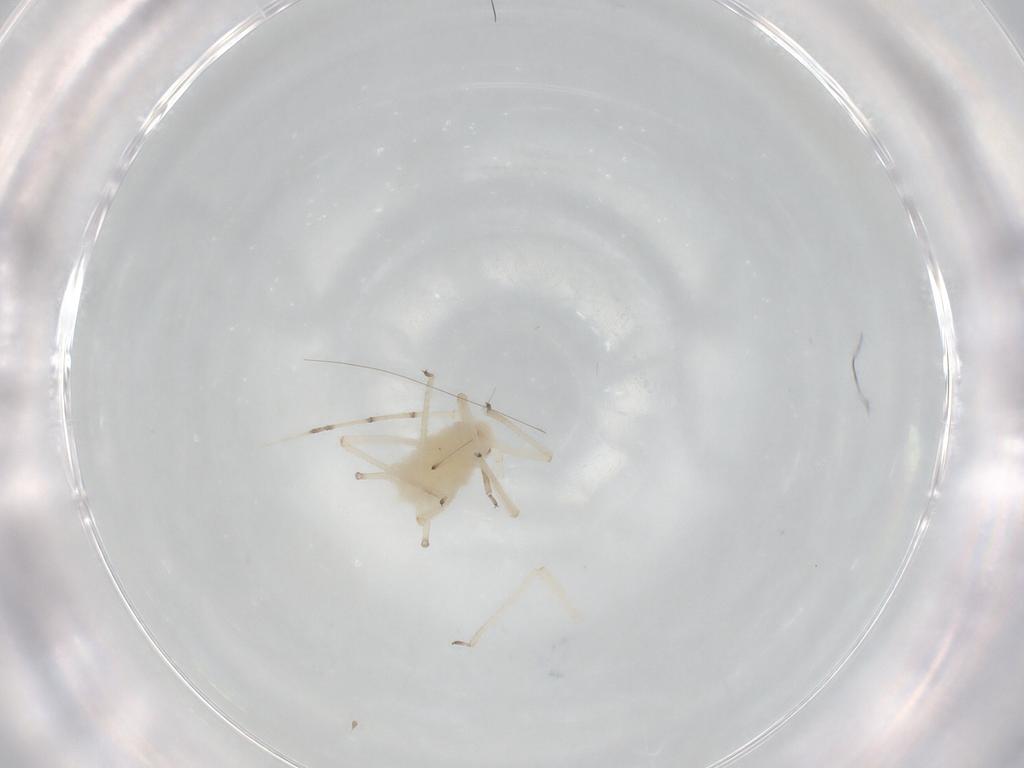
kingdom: Animalia
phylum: Arthropoda
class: Insecta
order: Hemiptera
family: Aphididae
